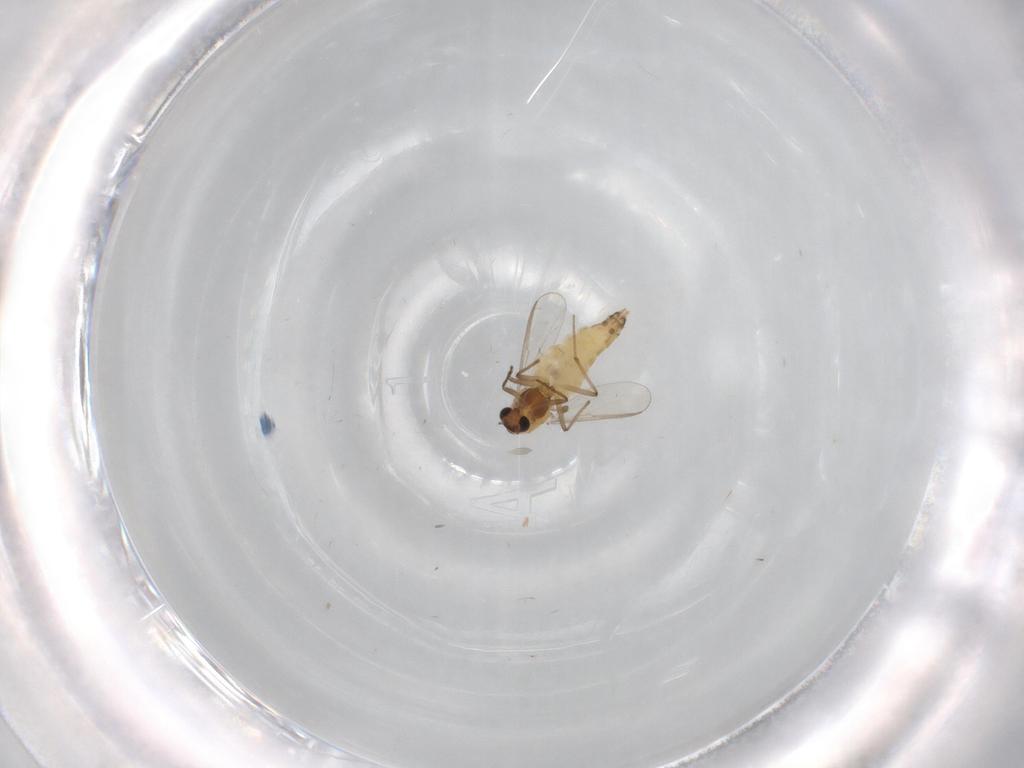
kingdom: Animalia
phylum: Arthropoda
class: Insecta
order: Diptera
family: Chironomidae
